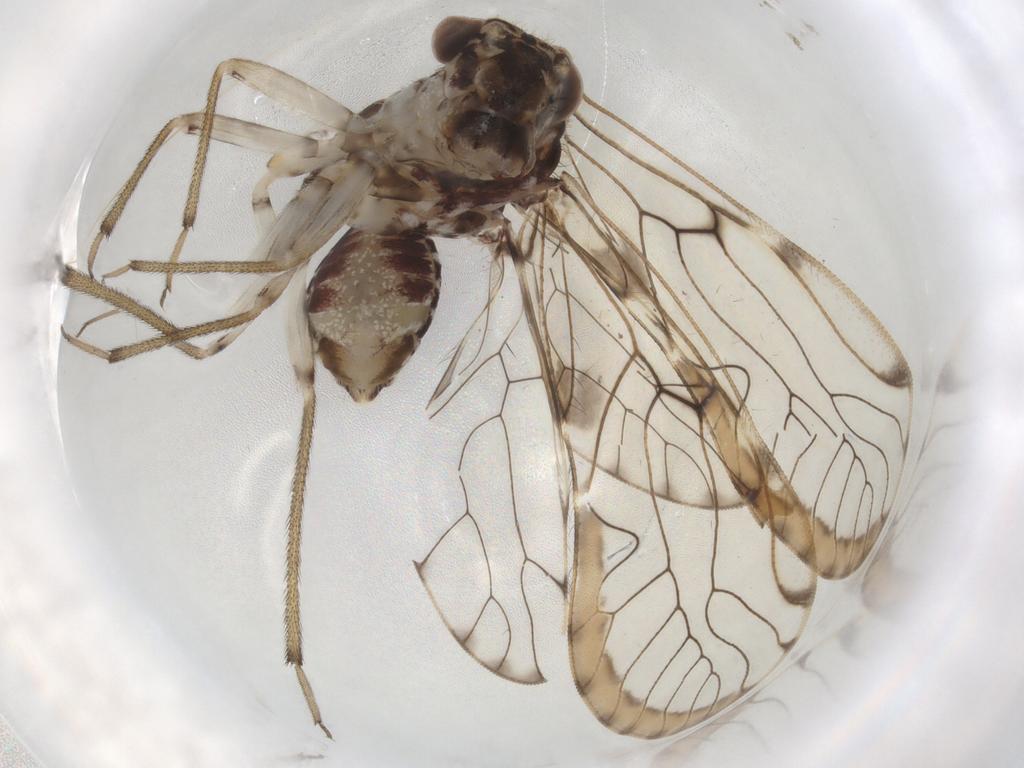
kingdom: Animalia
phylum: Arthropoda
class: Insecta
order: Psocodea
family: Ptiloneuridae
